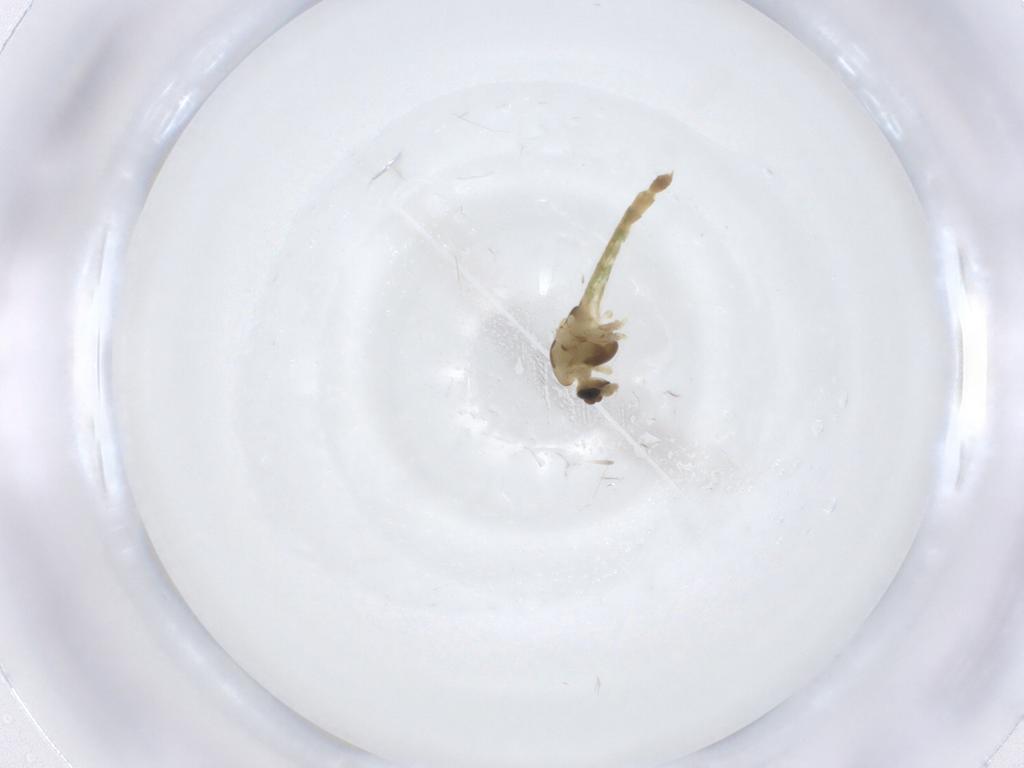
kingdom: Animalia
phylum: Arthropoda
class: Insecta
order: Diptera
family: Chironomidae
